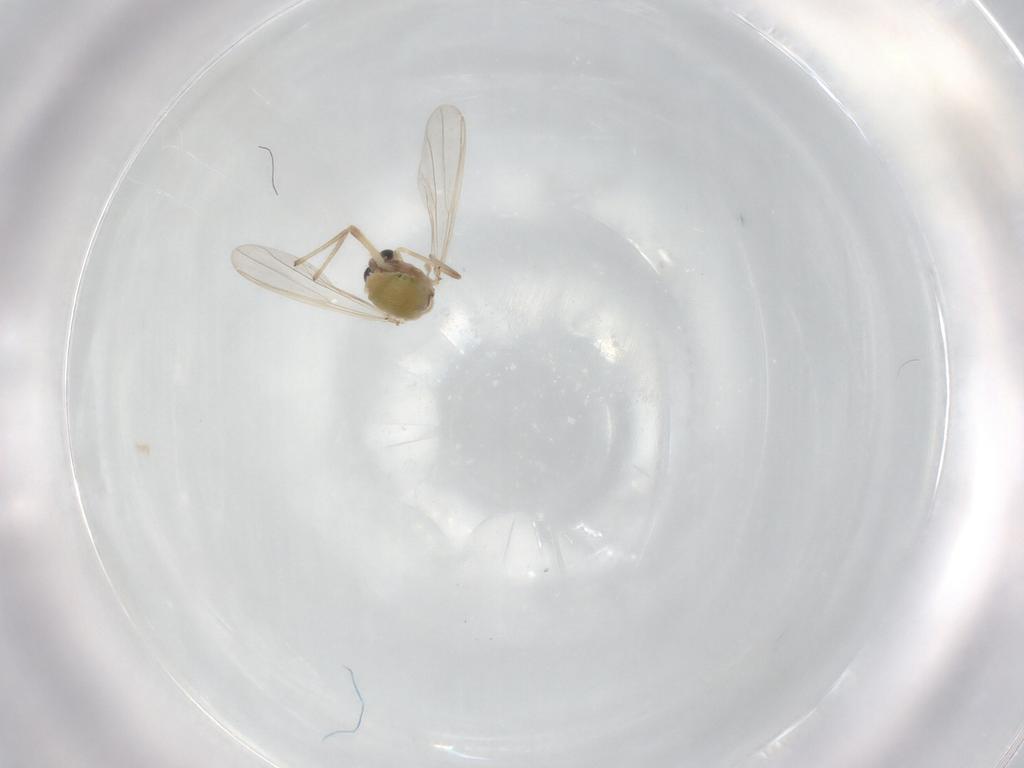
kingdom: Animalia
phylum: Arthropoda
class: Insecta
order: Diptera
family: Chironomidae
